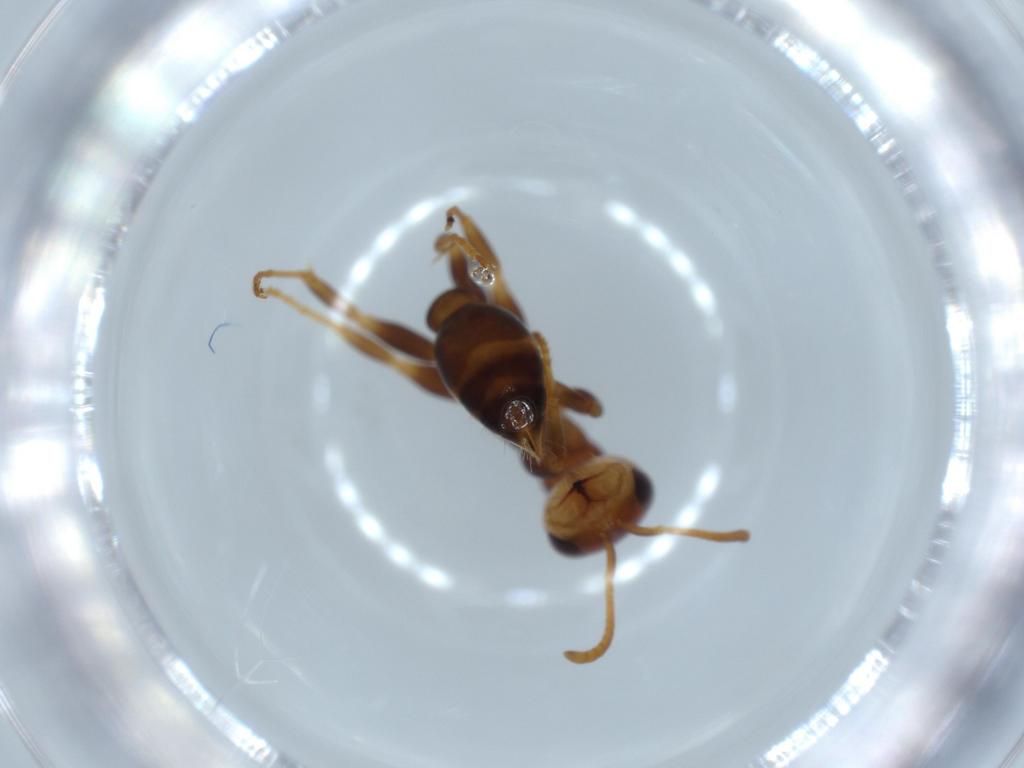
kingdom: Animalia
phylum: Arthropoda
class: Insecta
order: Hymenoptera
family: Formicidae
